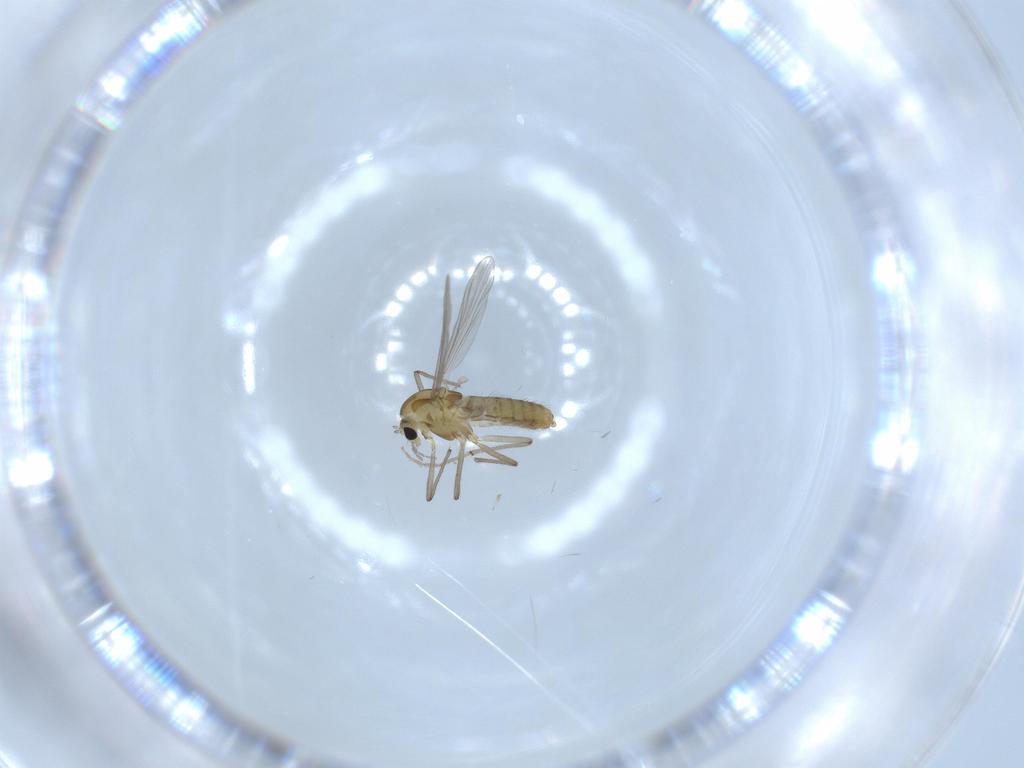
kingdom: Animalia
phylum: Arthropoda
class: Insecta
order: Diptera
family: Chironomidae
